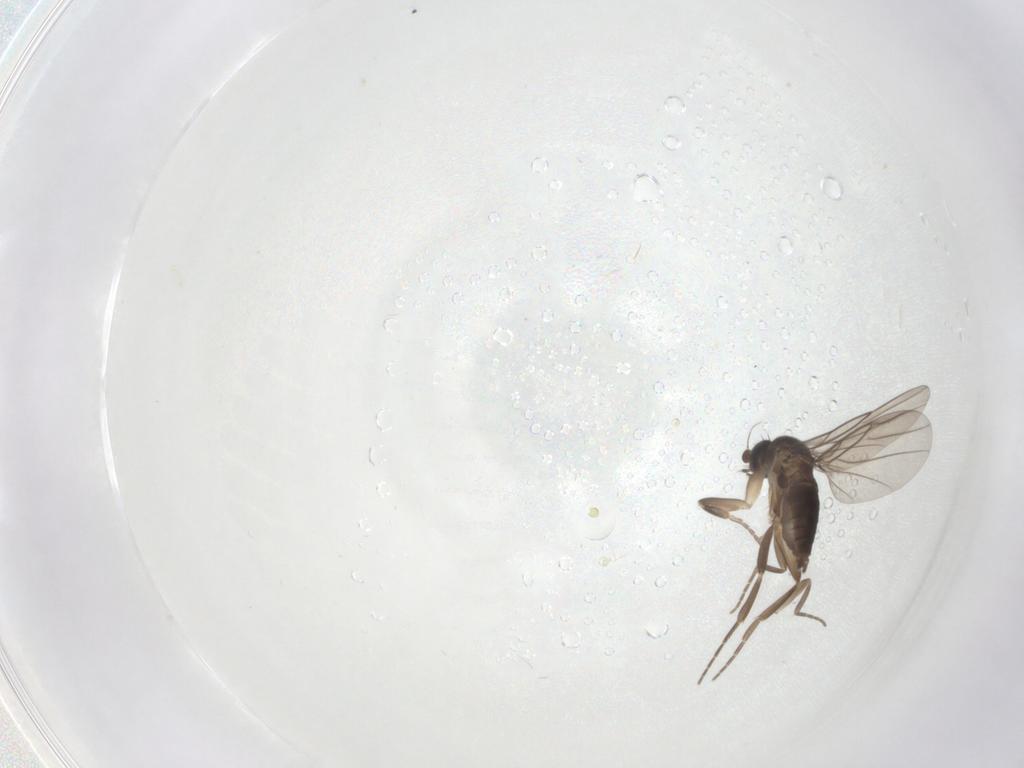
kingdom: Animalia
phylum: Arthropoda
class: Insecta
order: Diptera
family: Phoridae
